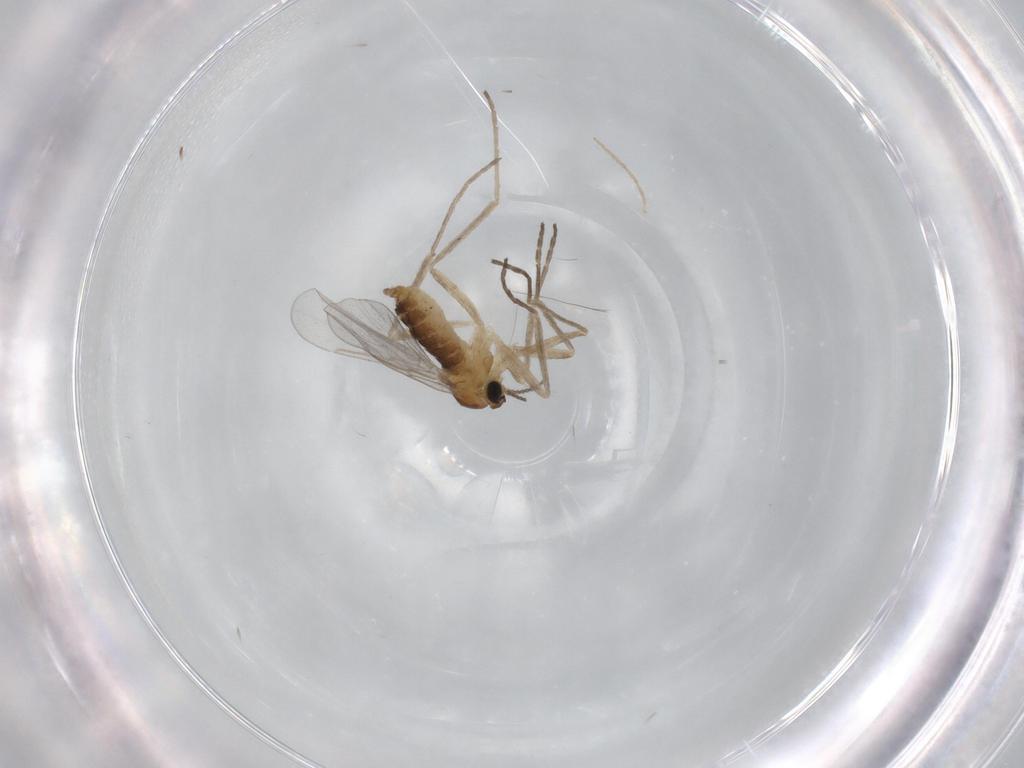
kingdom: Animalia
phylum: Arthropoda
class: Insecta
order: Diptera
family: Cecidomyiidae
